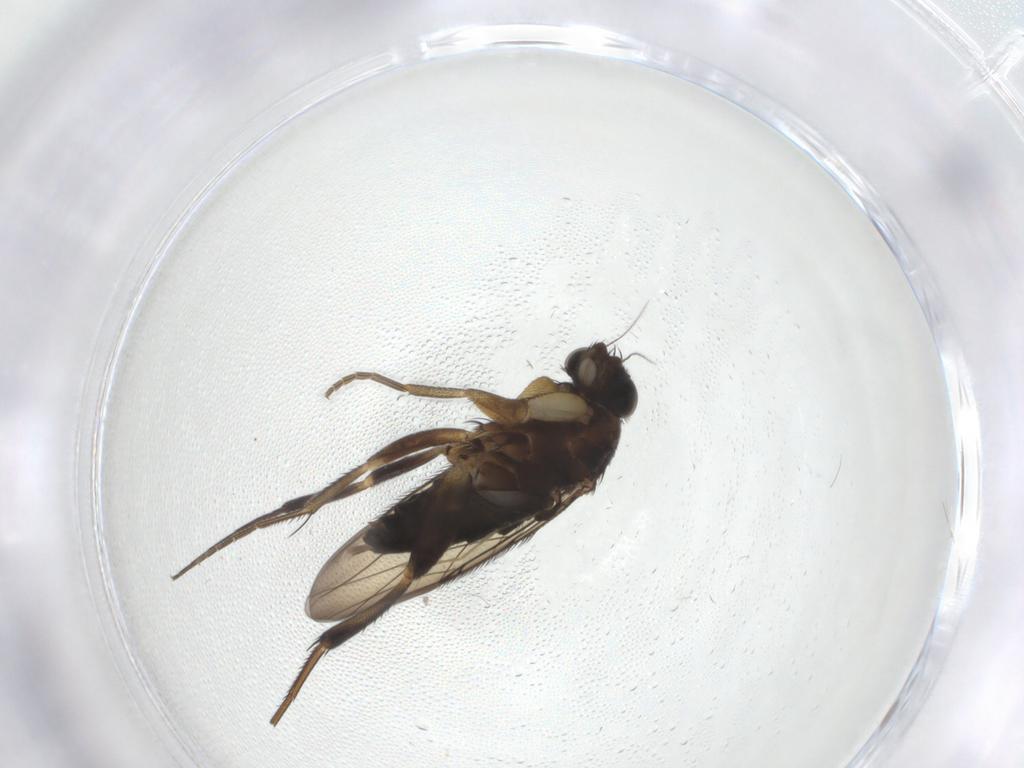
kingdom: Animalia
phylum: Arthropoda
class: Insecta
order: Diptera
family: Phoridae
